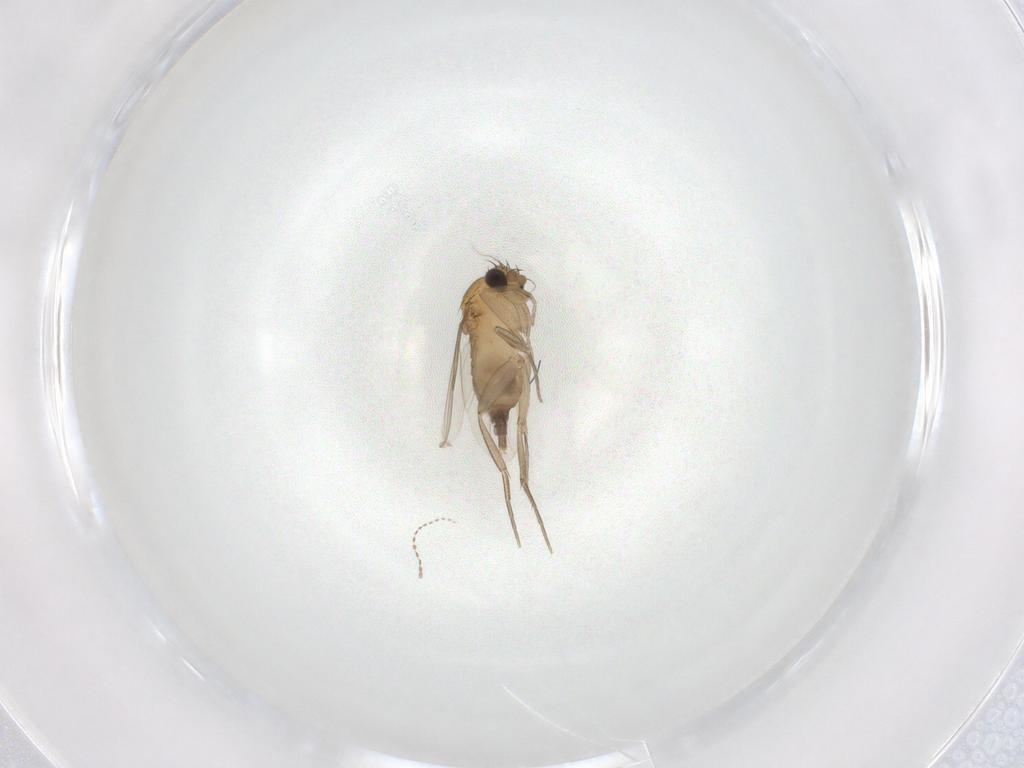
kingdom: Animalia
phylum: Arthropoda
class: Insecta
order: Diptera
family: Phoridae
